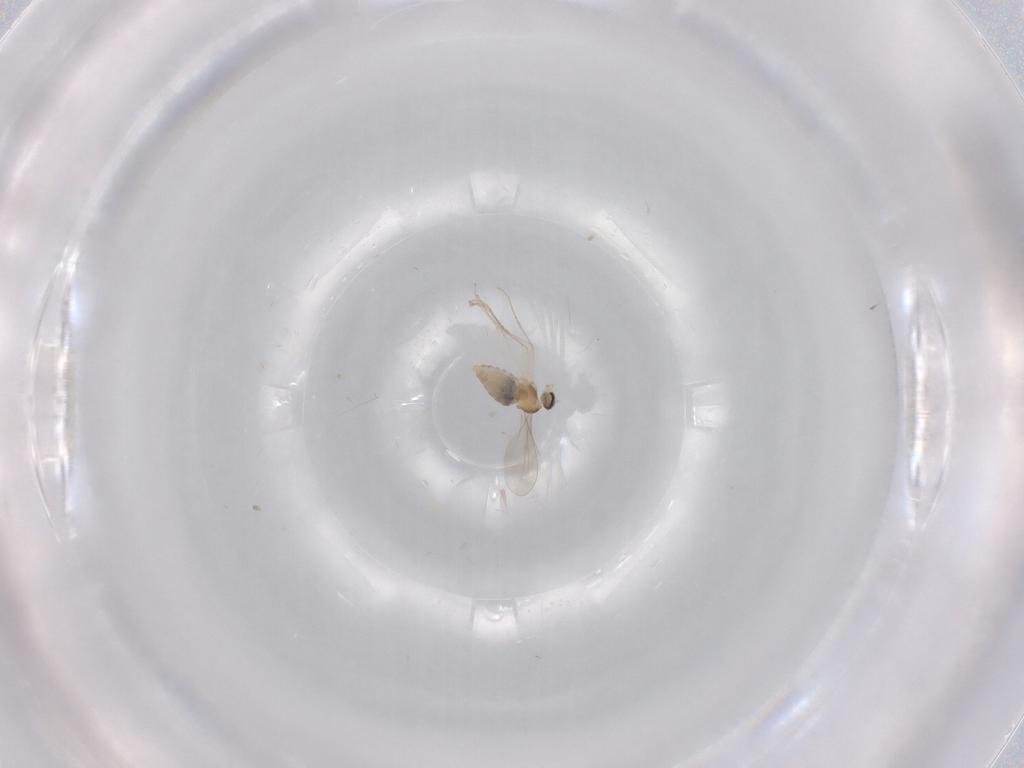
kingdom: Animalia
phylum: Arthropoda
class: Insecta
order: Diptera
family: Cecidomyiidae
